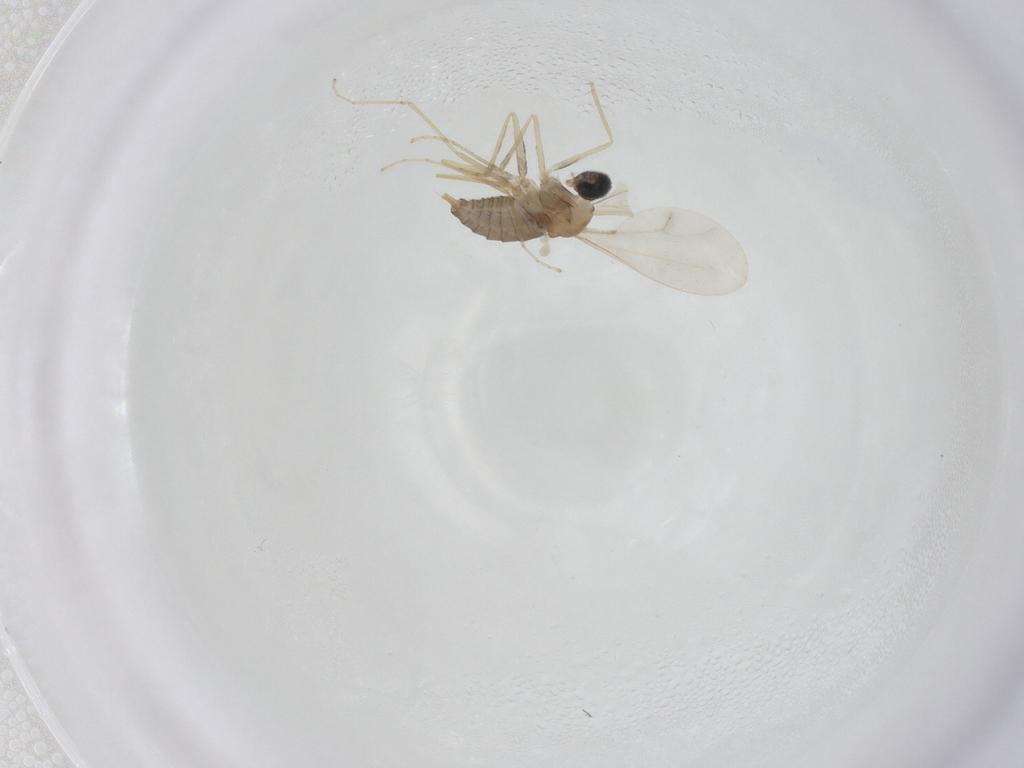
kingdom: Animalia
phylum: Arthropoda
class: Insecta
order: Diptera
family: Cecidomyiidae
